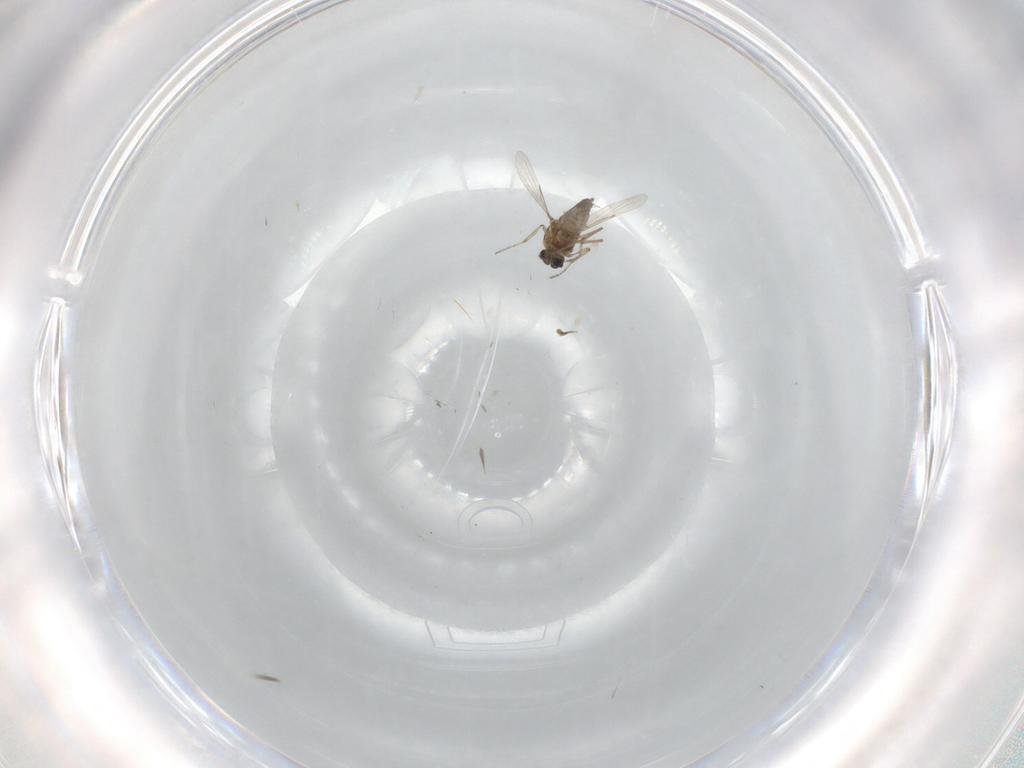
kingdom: Animalia
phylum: Arthropoda
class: Insecta
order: Diptera
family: Ceratopogonidae
